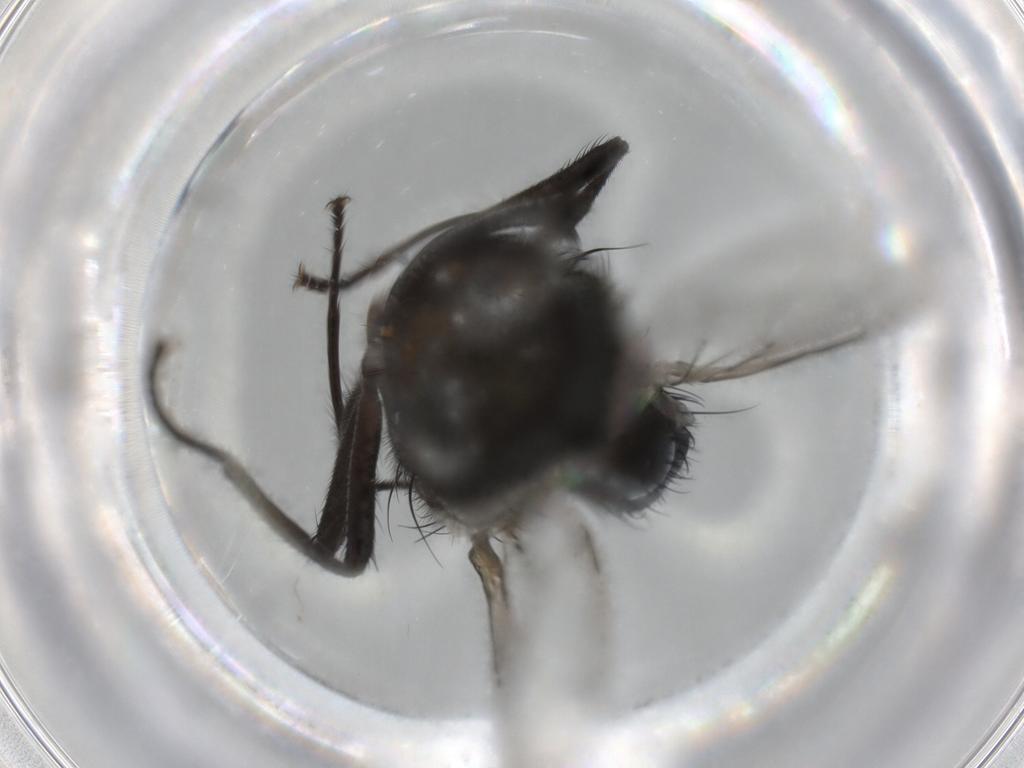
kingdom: Animalia
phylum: Arthropoda
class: Insecta
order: Diptera
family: Muscidae
